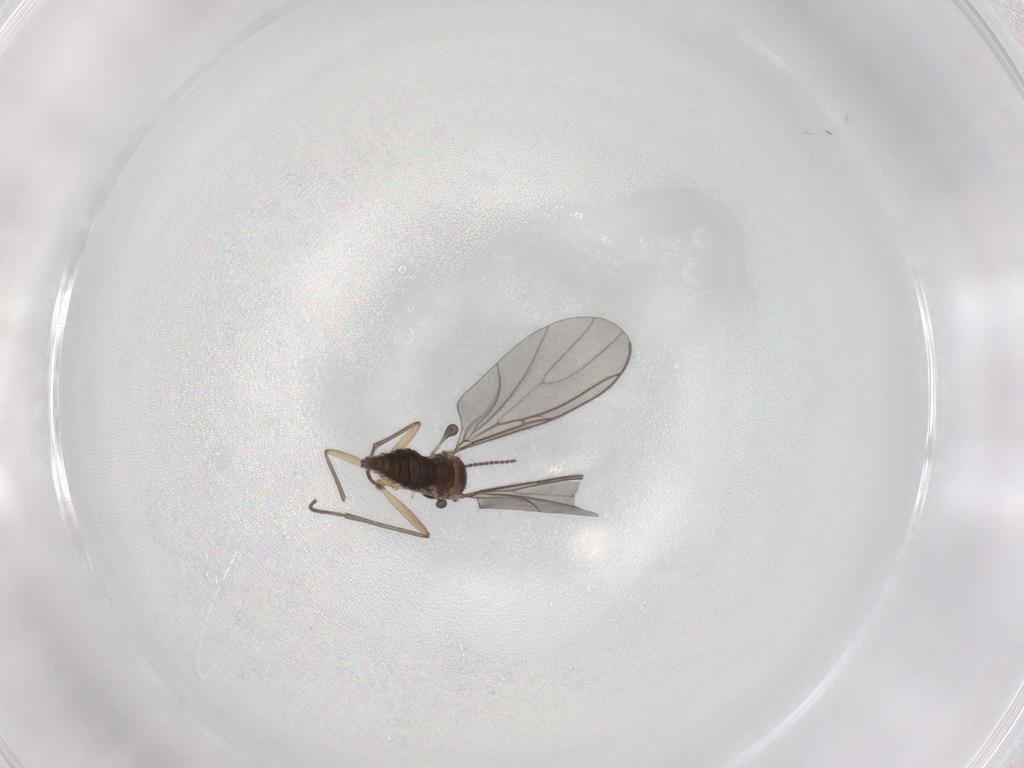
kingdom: Animalia
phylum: Arthropoda
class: Insecta
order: Diptera
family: Sciaridae
